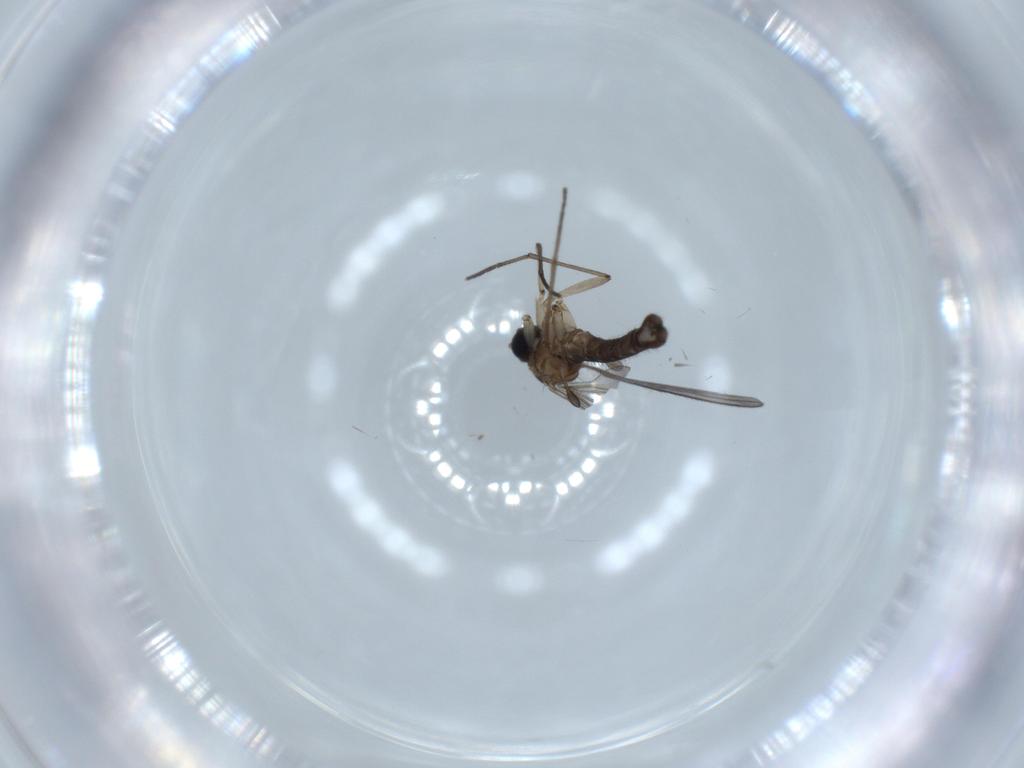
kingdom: Animalia
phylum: Arthropoda
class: Insecta
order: Diptera
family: Sciaridae
